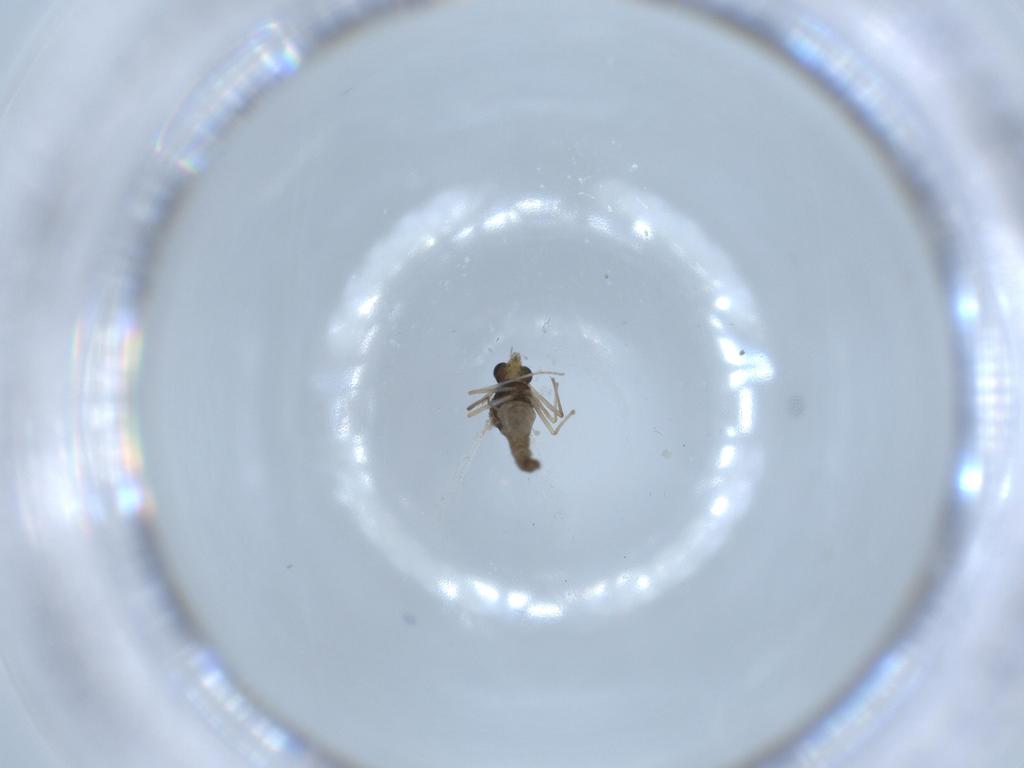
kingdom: Animalia
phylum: Arthropoda
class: Insecta
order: Diptera
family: Chironomidae
